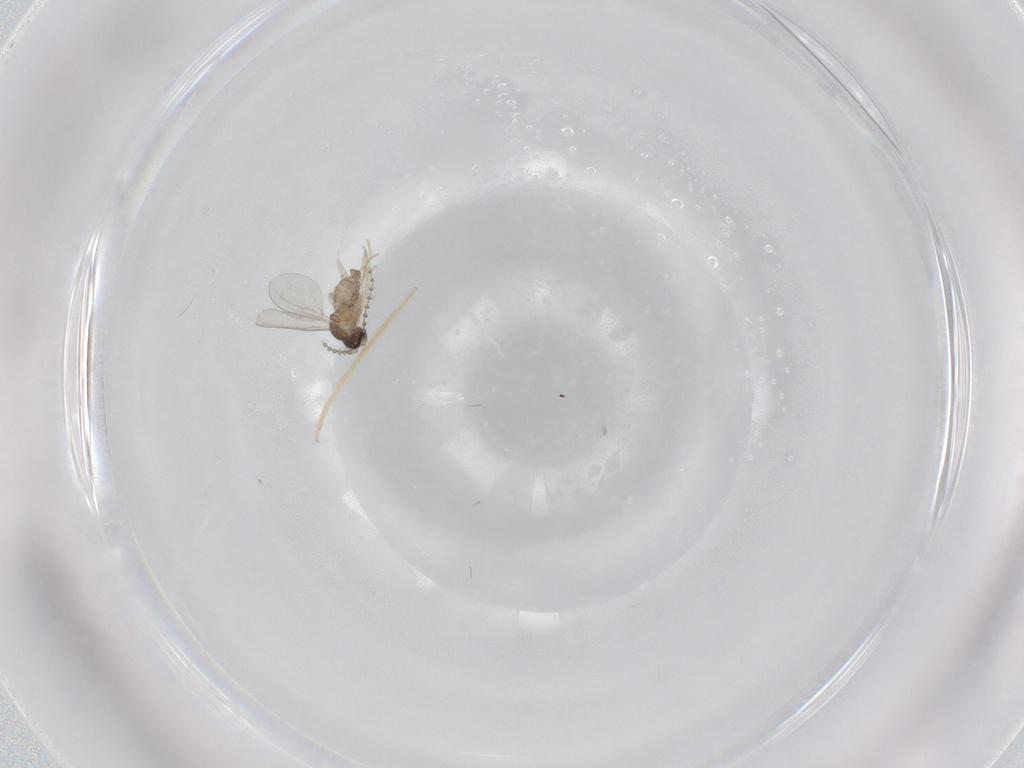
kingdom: Animalia
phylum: Arthropoda
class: Insecta
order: Diptera
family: Cecidomyiidae
